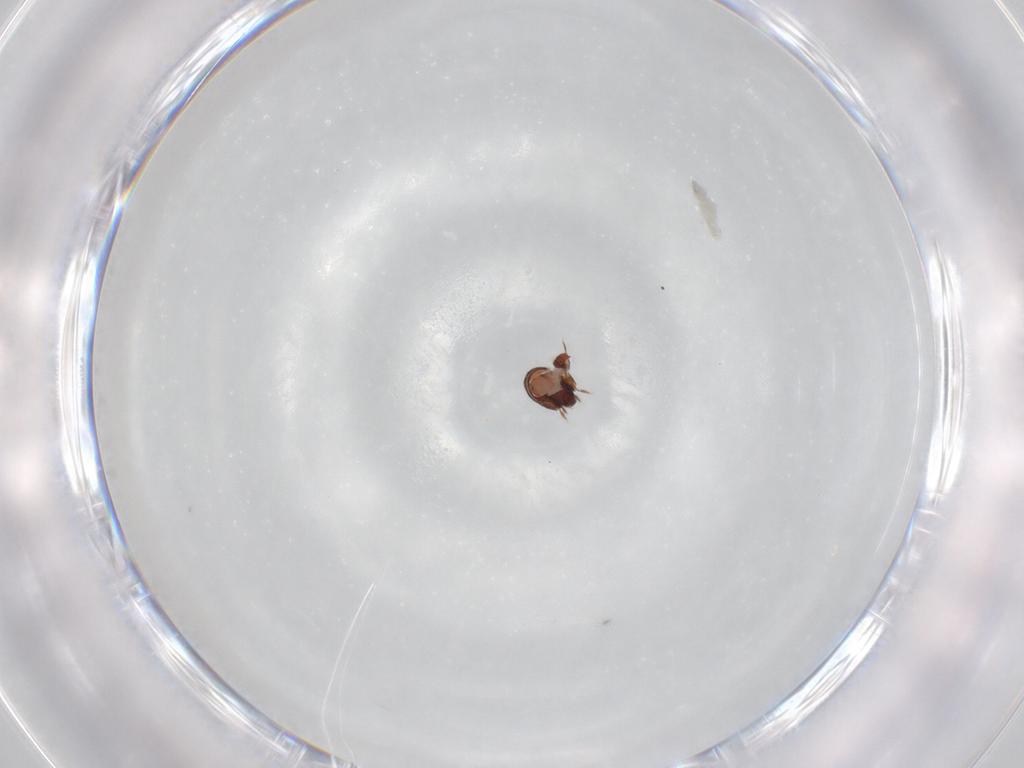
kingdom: Animalia
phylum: Arthropoda
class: Arachnida
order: Sarcoptiformes
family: Phenopelopidae
